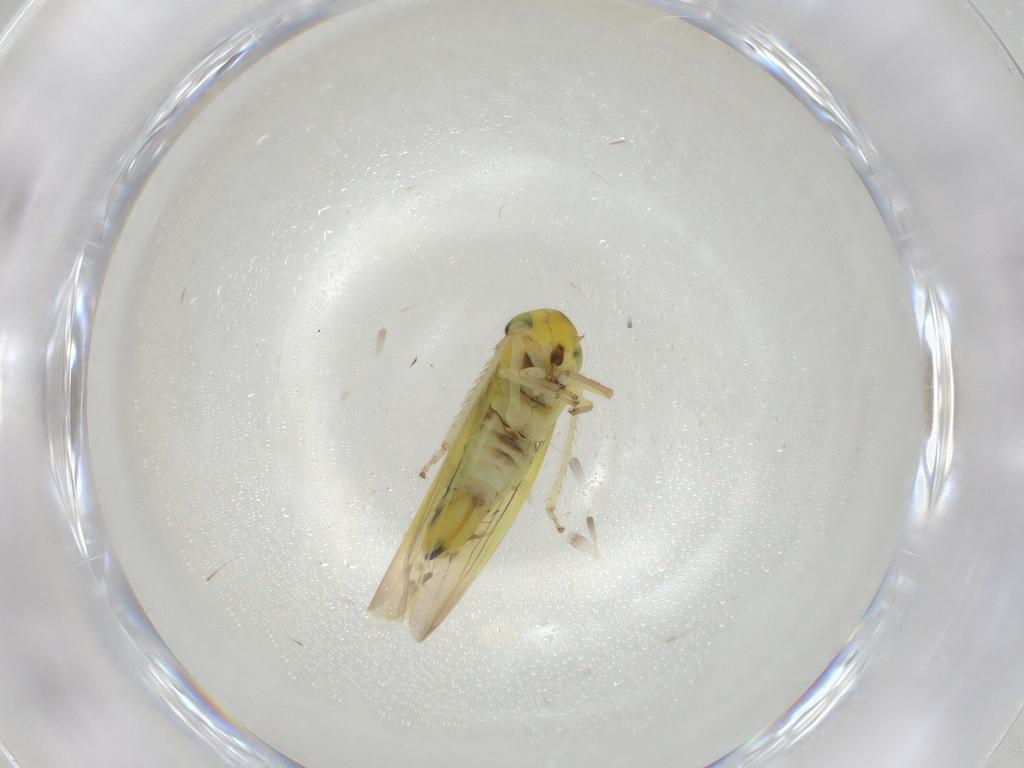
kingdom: Animalia
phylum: Arthropoda
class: Insecta
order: Hemiptera
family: Cicadellidae
